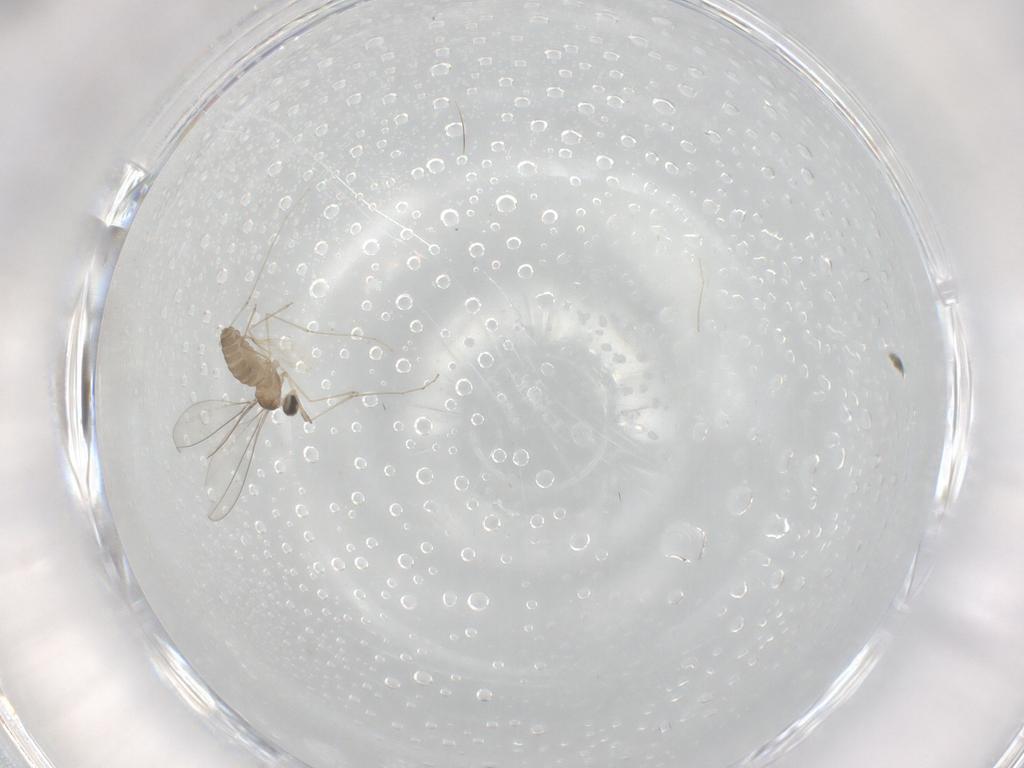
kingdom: Animalia
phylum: Arthropoda
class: Insecta
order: Diptera
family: Cecidomyiidae
